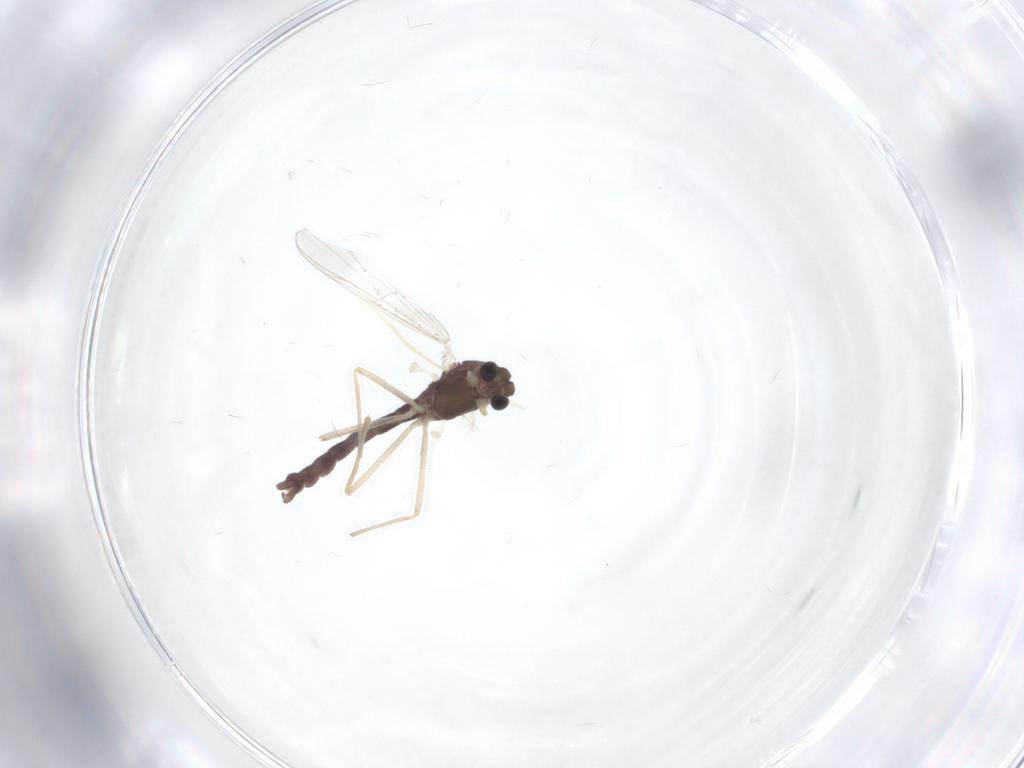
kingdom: Animalia
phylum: Arthropoda
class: Insecta
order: Diptera
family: Chironomidae
